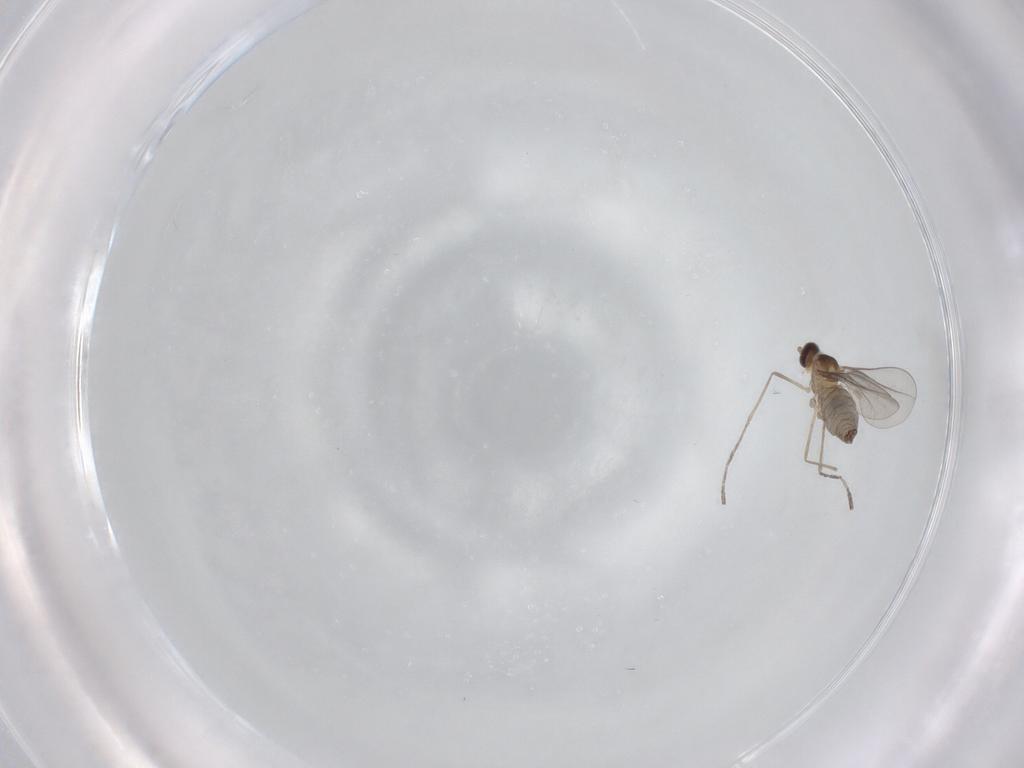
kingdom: Animalia
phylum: Arthropoda
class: Insecta
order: Diptera
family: Cecidomyiidae
